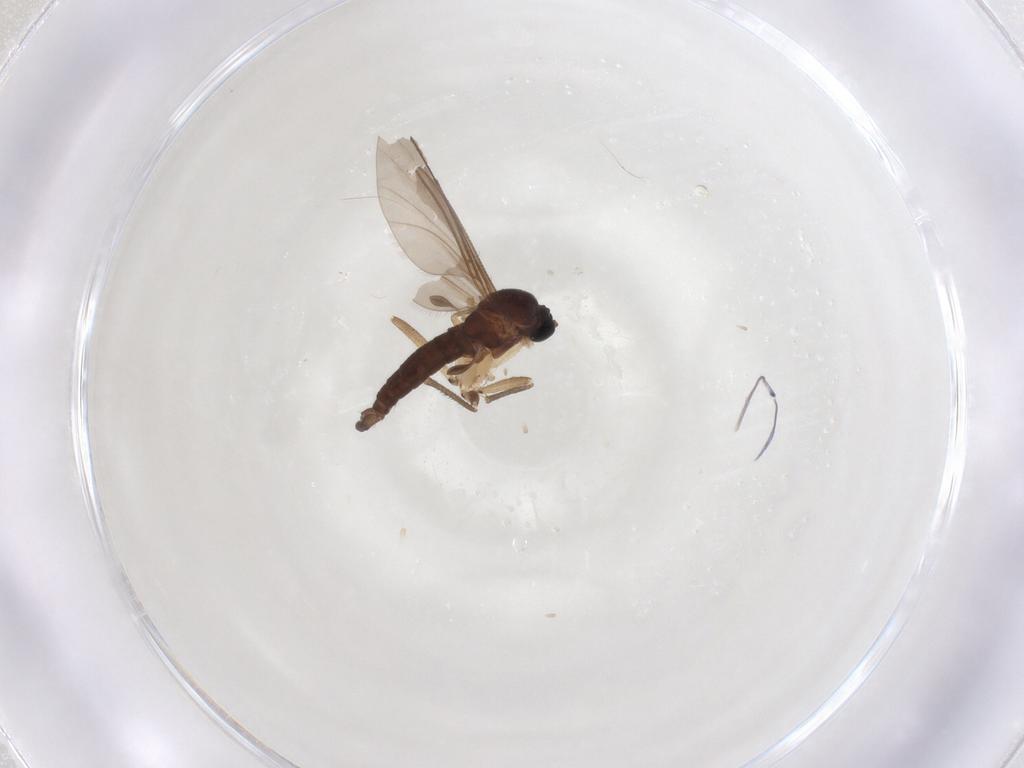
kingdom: Animalia
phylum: Arthropoda
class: Insecta
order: Diptera
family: Sciaridae
